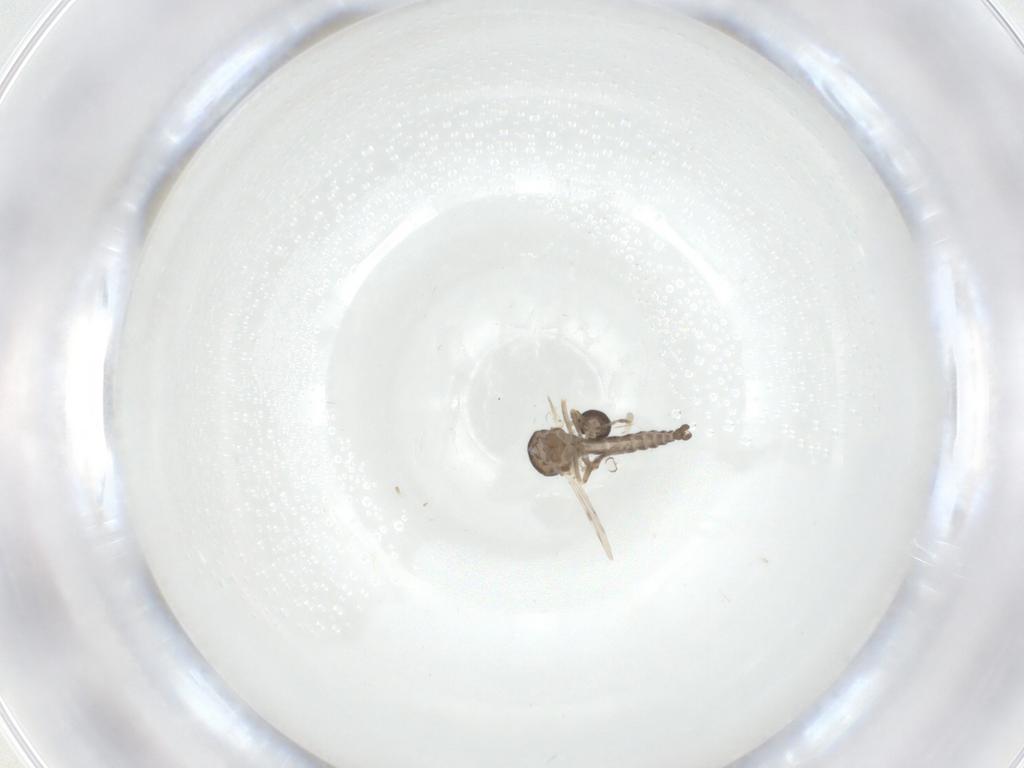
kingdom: Animalia
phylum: Arthropoda
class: Insecta
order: Diptera
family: Ceratopogonidae
